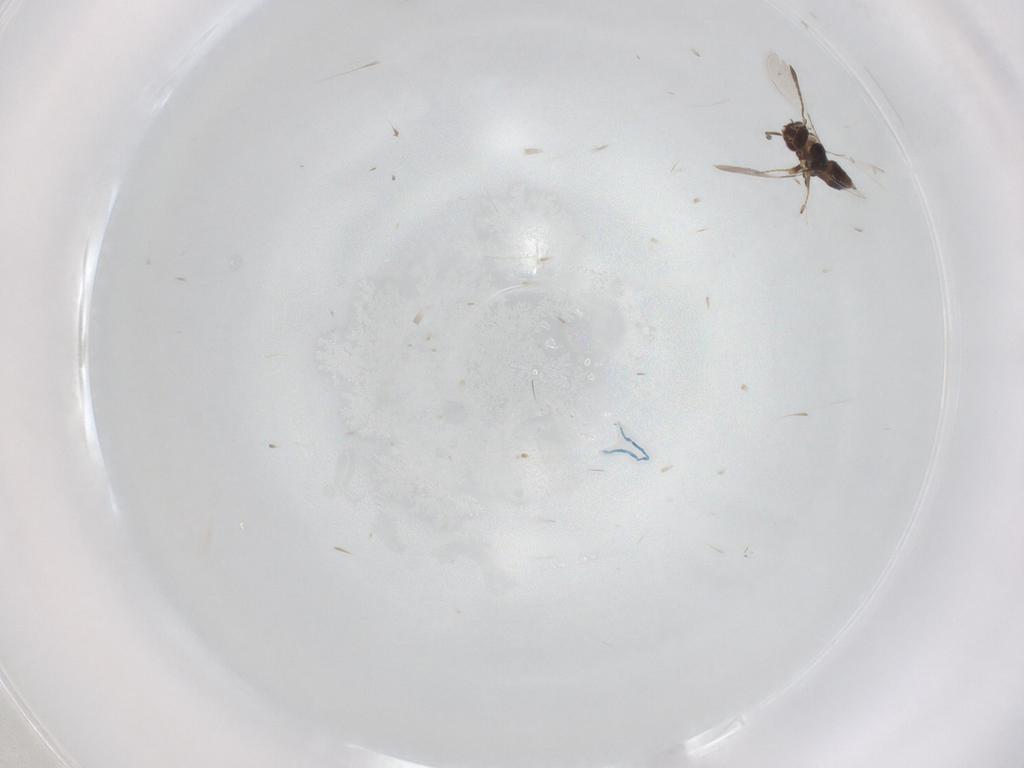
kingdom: Animalia
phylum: Arthropoda
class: Insecta
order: Hymenoptera
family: Mymaridae
